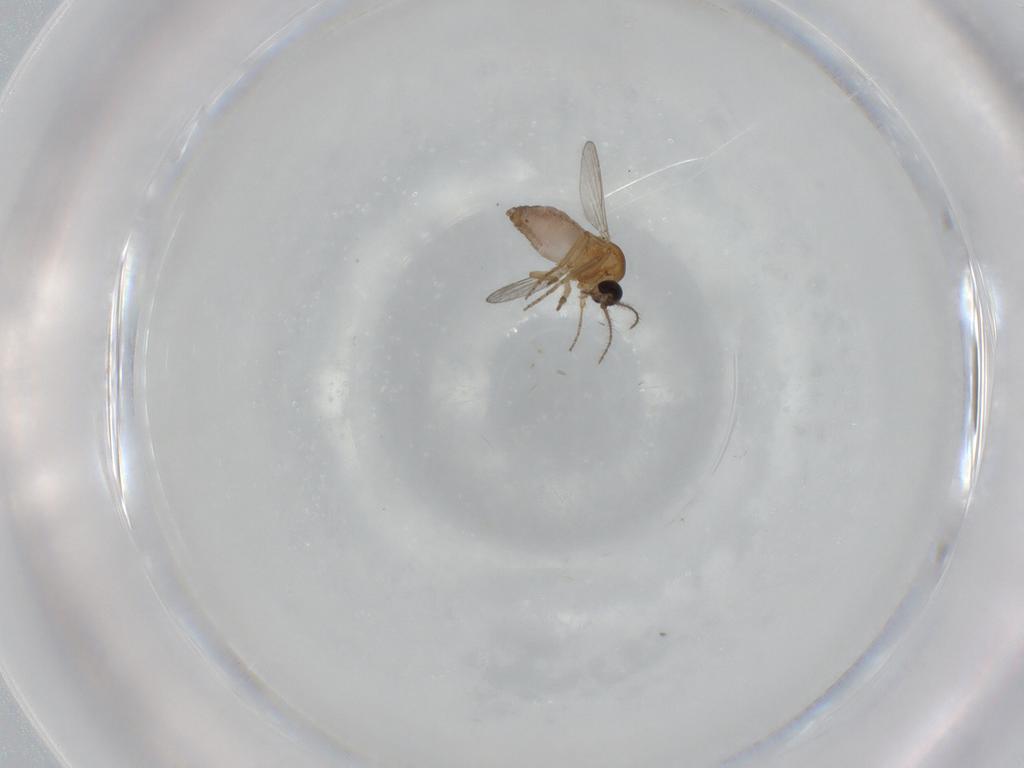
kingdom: Animalia
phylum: Arthropoda
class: Insecta
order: Diptera
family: Ceratopogonidae
